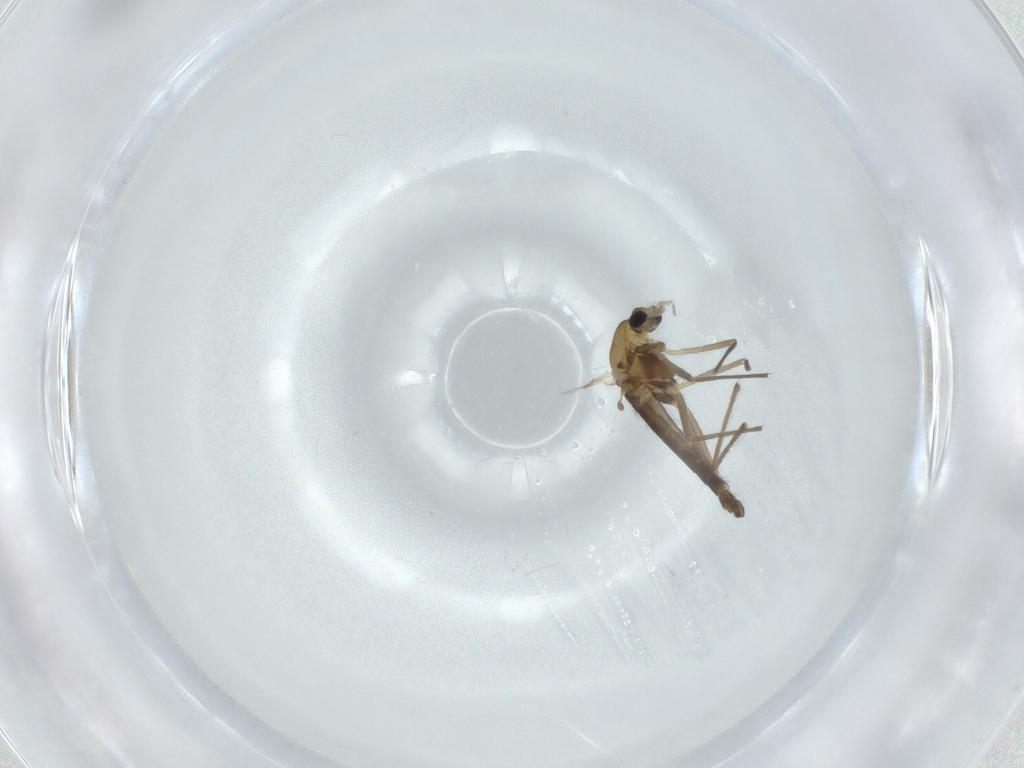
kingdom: Animalia
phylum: Arthropoda
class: Insecta
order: Diptera
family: Chironomidae
